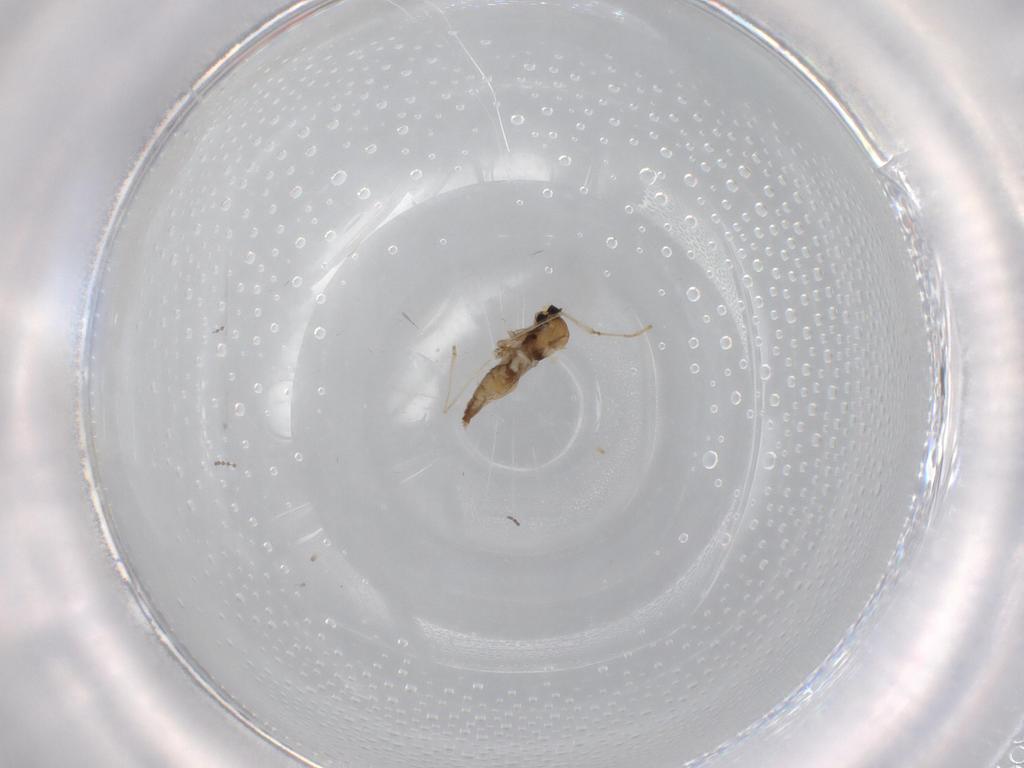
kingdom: Animalia
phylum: Arthropoda
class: Insecta
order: Diptera
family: Cecidomyiidae
